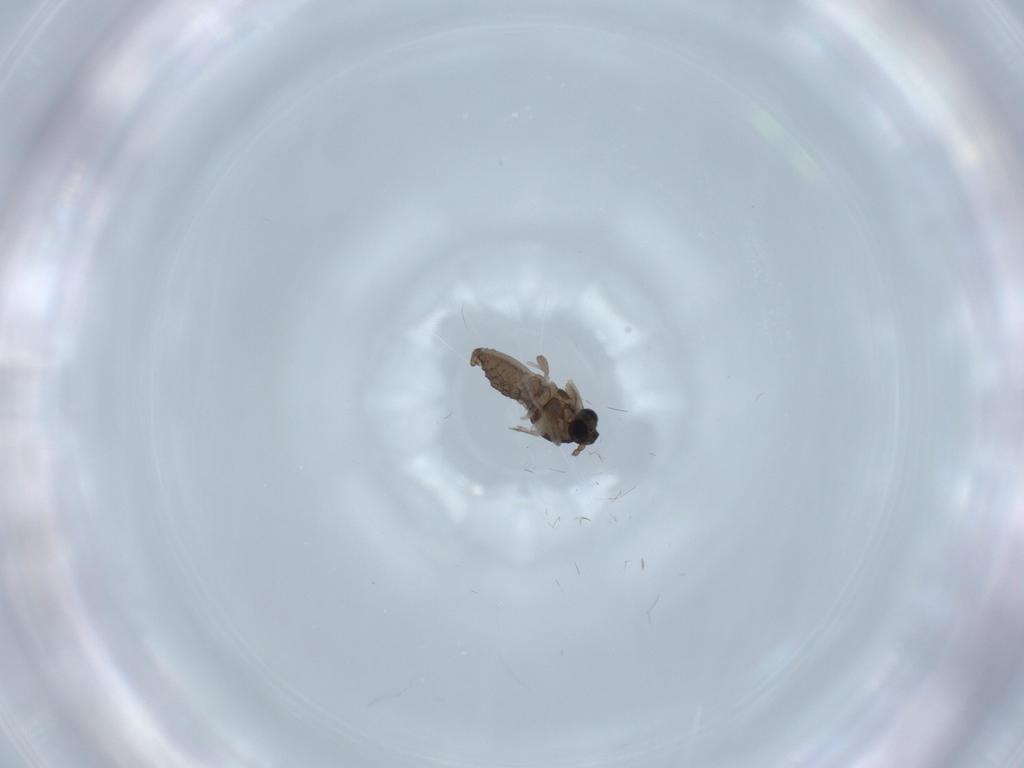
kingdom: Animalia
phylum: Arthropoda
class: Insecta
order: Diptera
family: Cecidomyiidae
